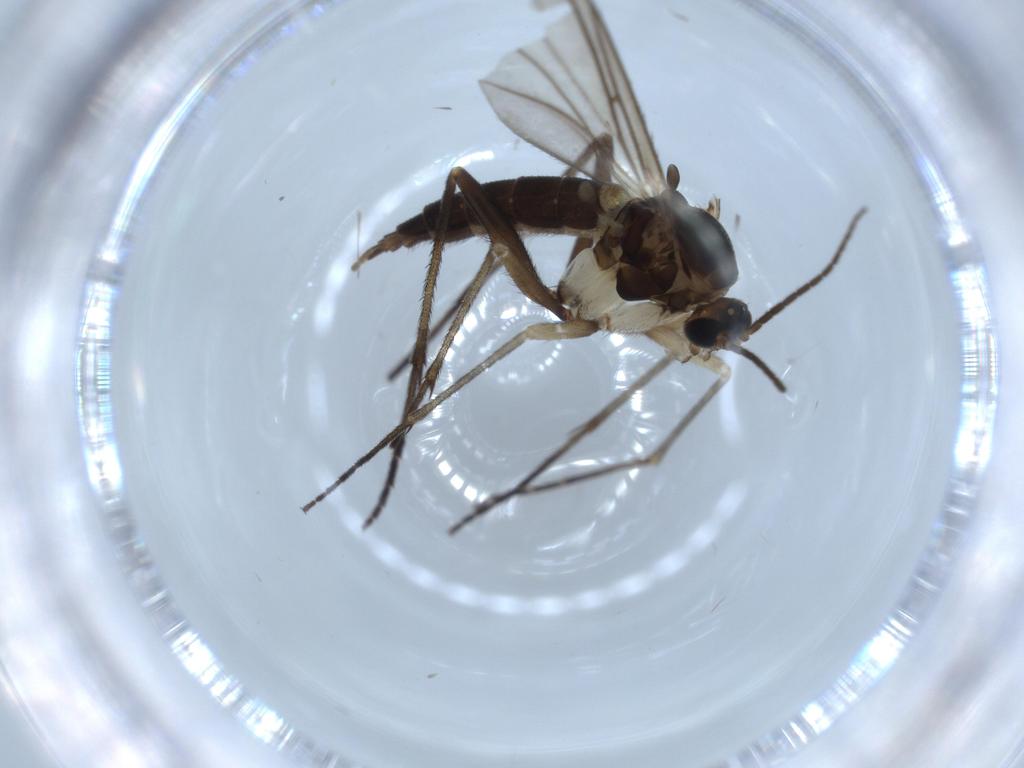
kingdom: Animalia
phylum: Arthropoda
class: Insecta
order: Diptera
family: Sciaridae
